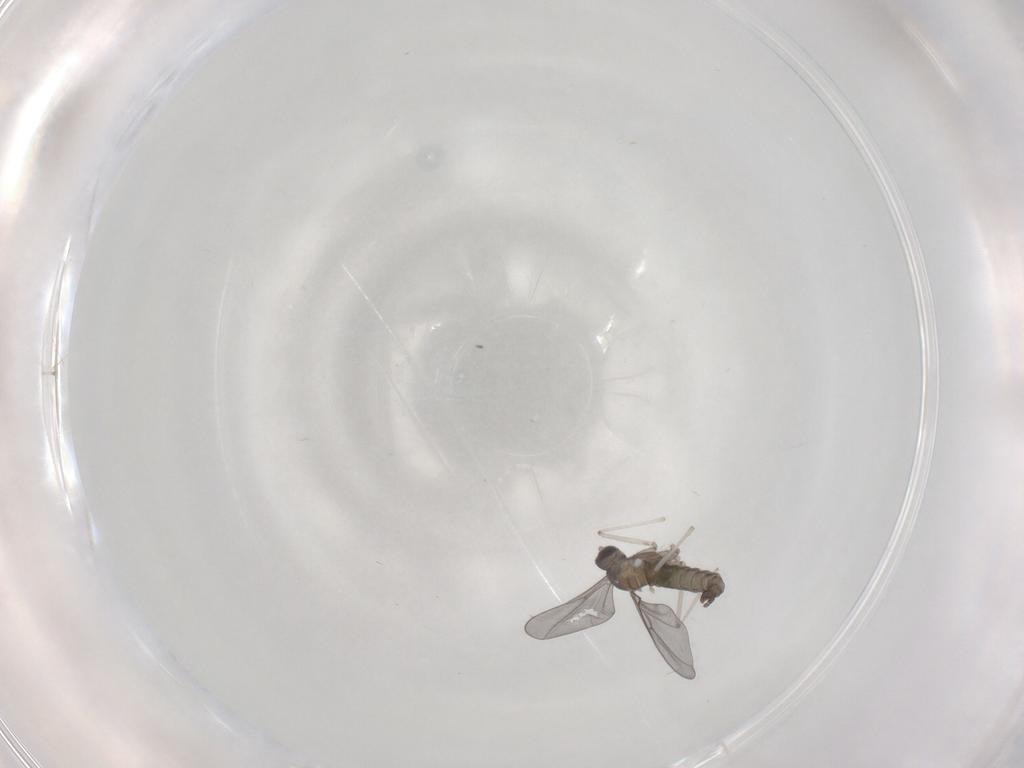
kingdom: Animalia
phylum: Arthropoda
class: Insecta
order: Diptera
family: Cecidomyiidae
